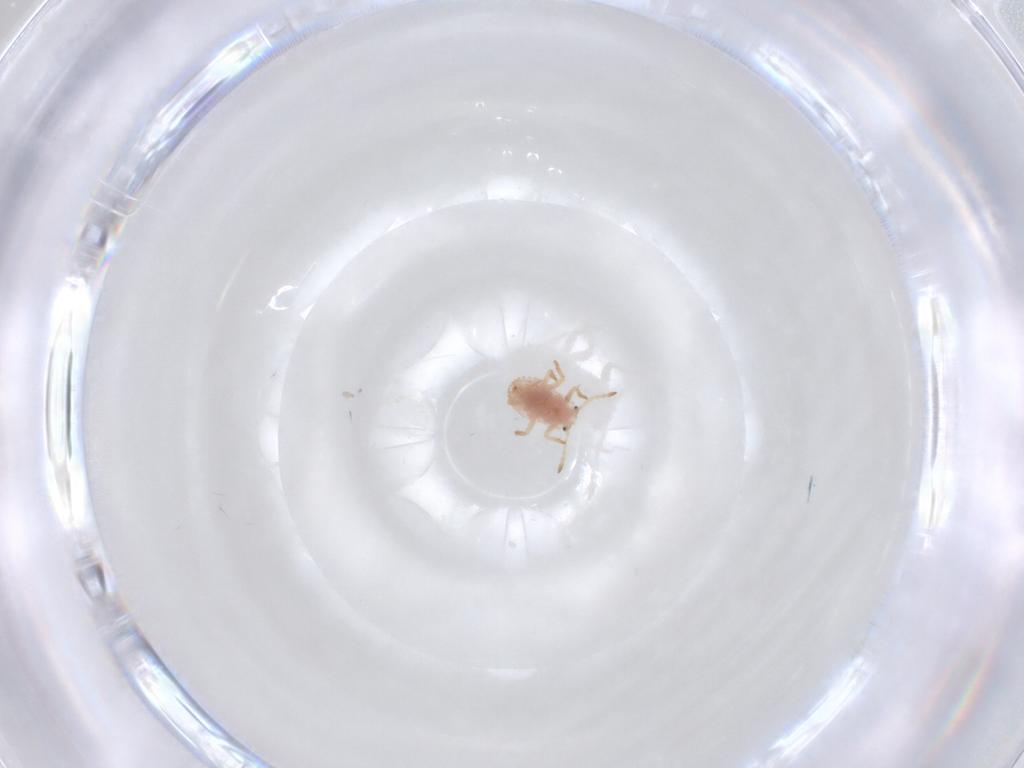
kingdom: Animalia
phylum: Arthropoda
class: Insecta
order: Hemiptera
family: Coccoidea_incertae_sedis
